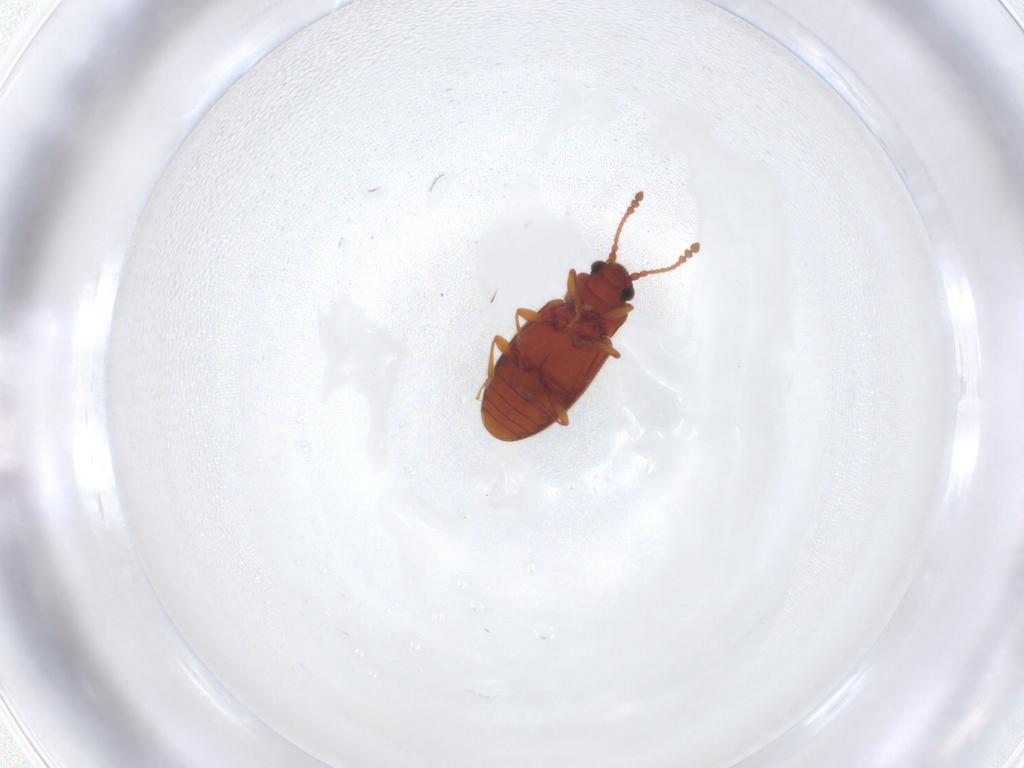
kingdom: Animalia
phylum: Arthropoda
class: Insecta
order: Coleoptera
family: Cryptophagidae
